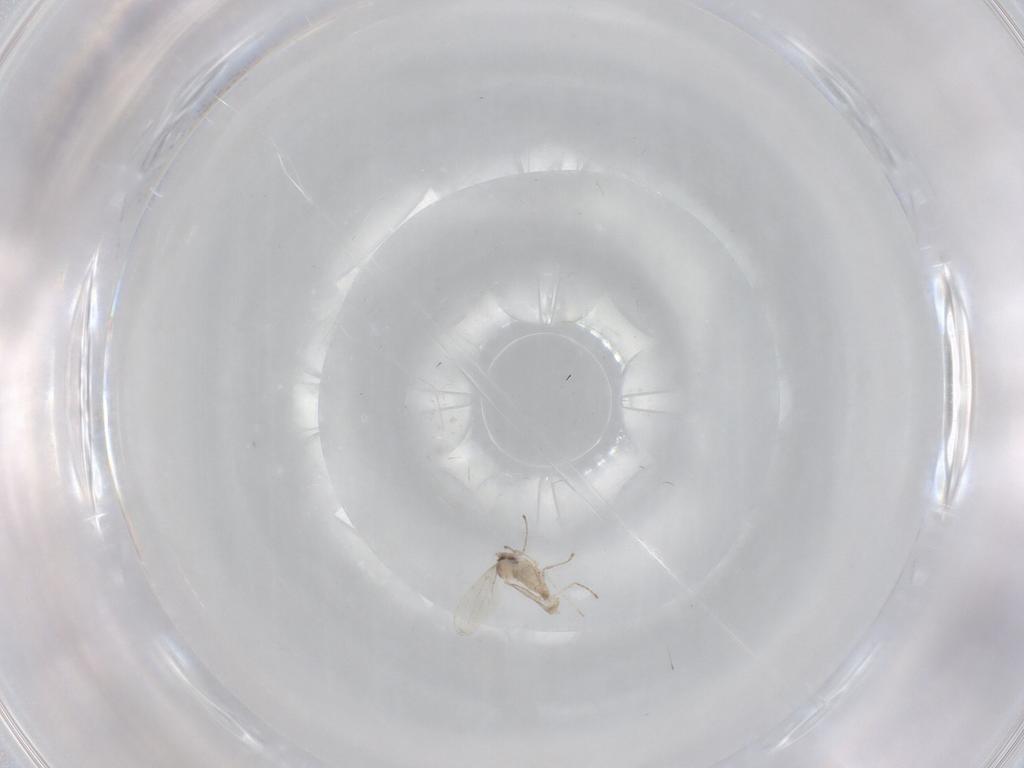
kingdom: Animalia
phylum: Arthropoda
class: Insecta
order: Diptera
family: Cecidomyiidae
